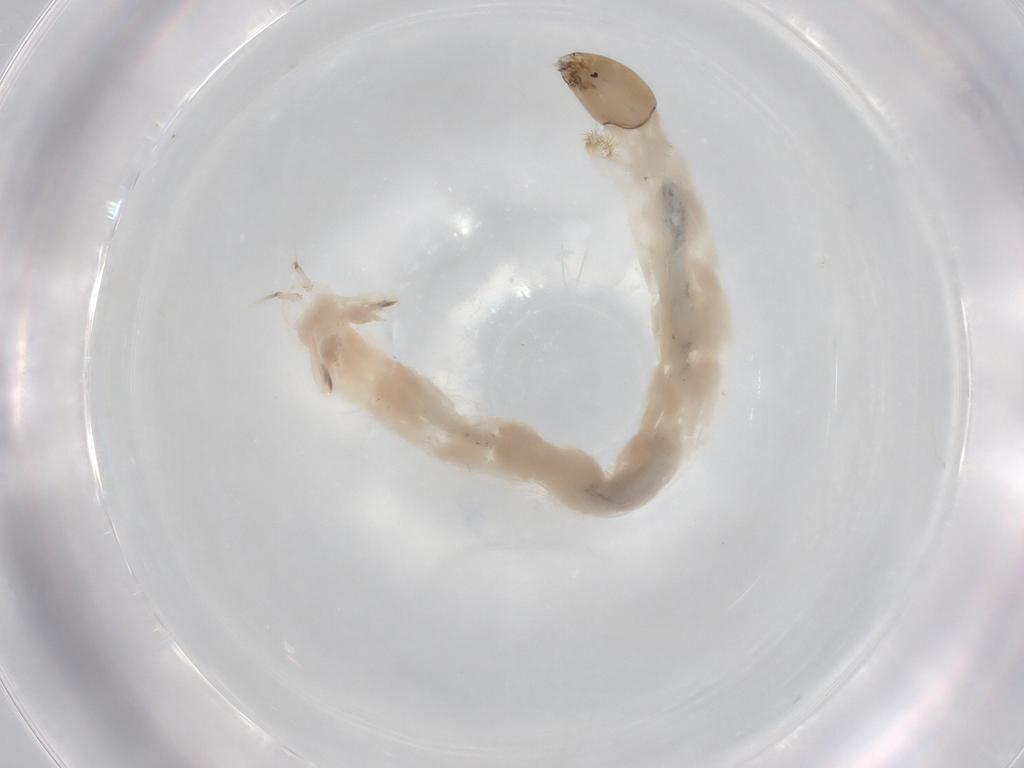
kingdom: Animalia
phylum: Arthropoda
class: Insecta
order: Diptera
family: Chironomidae
